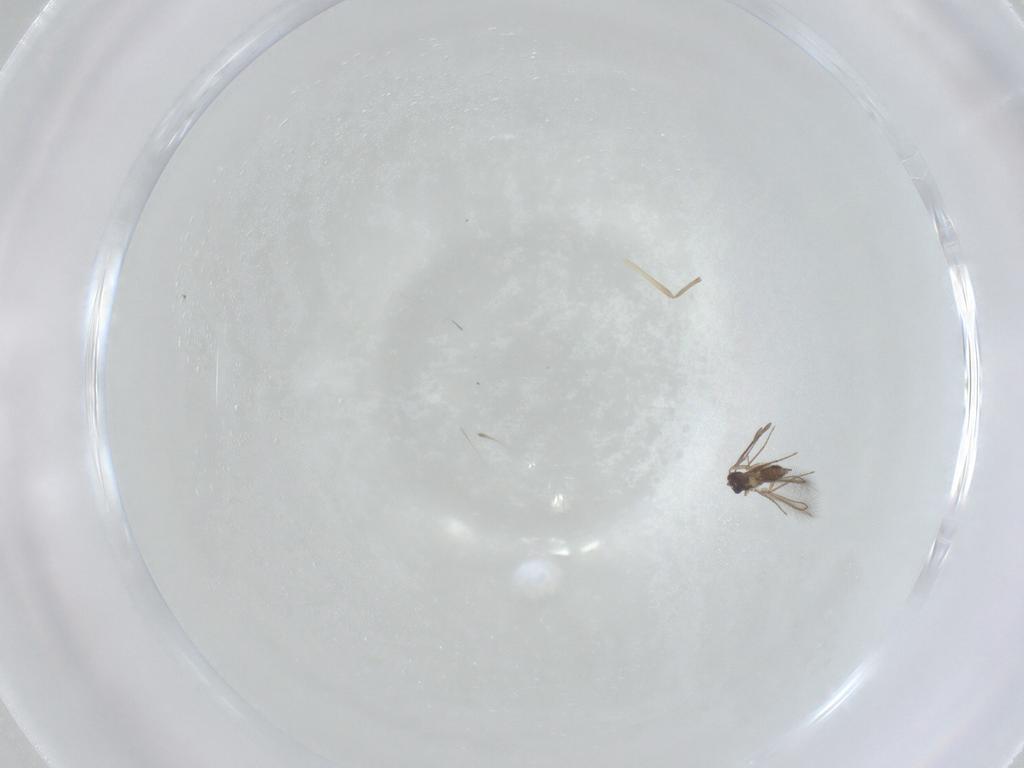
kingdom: Animalia
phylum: Arthropoda
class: Insecta
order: Hymenoptera
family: Mymaridae
